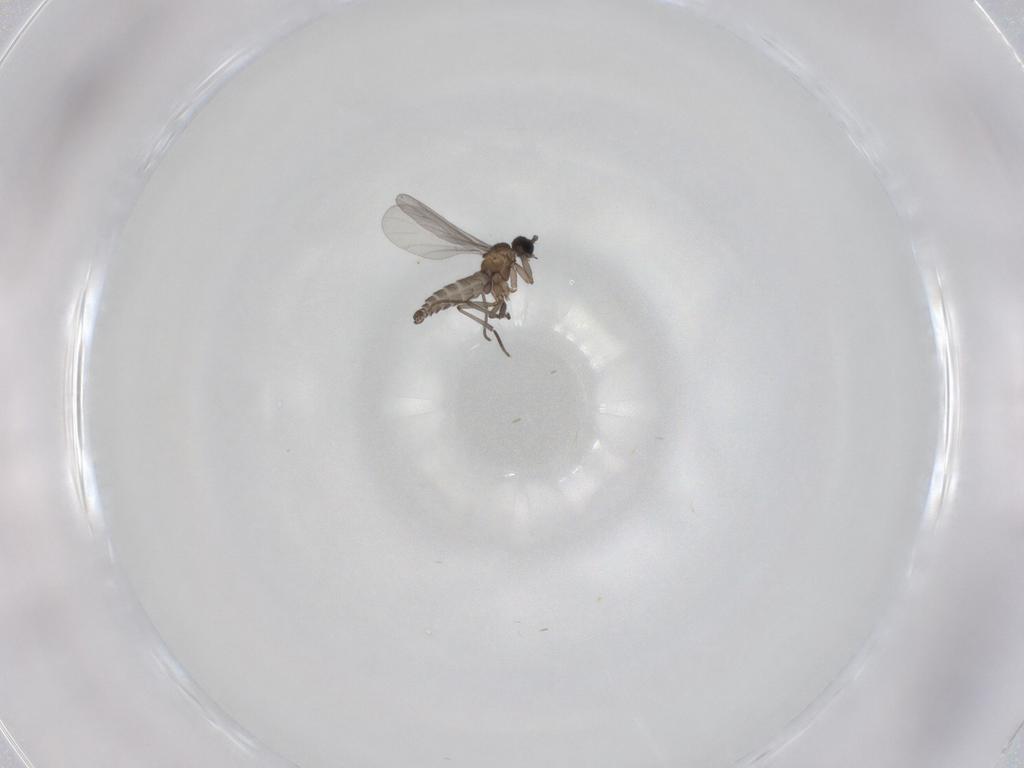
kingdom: Animalia
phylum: Arthropoda
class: Insecta
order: Diptera
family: Sciaridae
